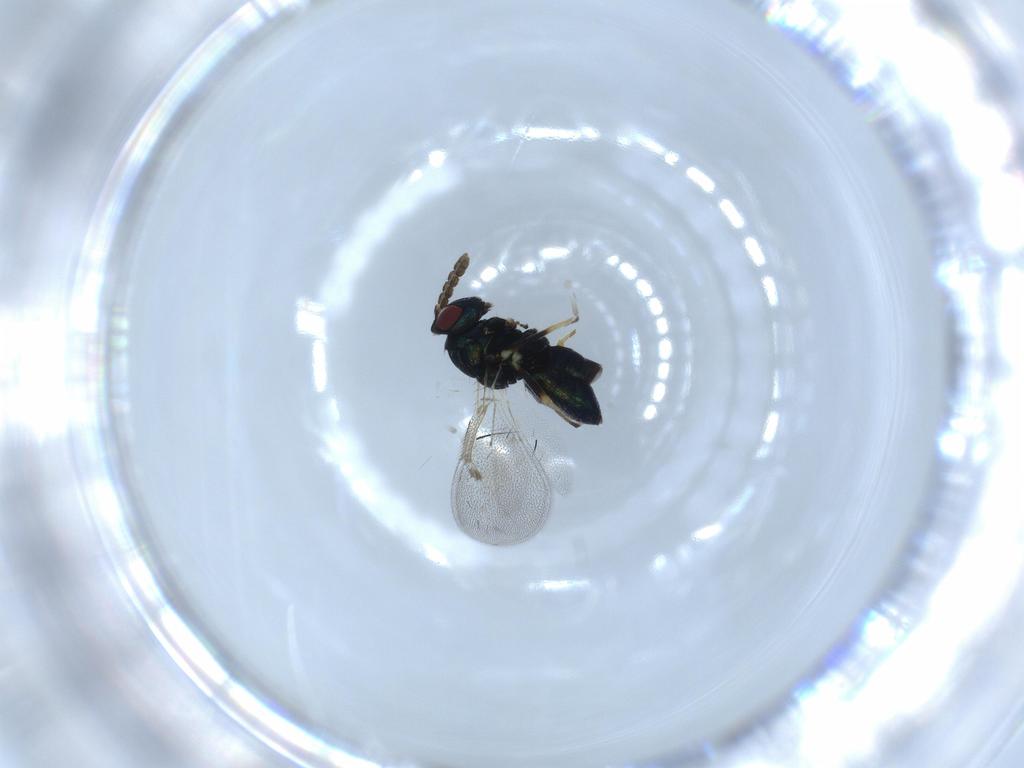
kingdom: Animalia
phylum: Arthropoda
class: Insecta
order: Hymenoptera
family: Eulophidae
